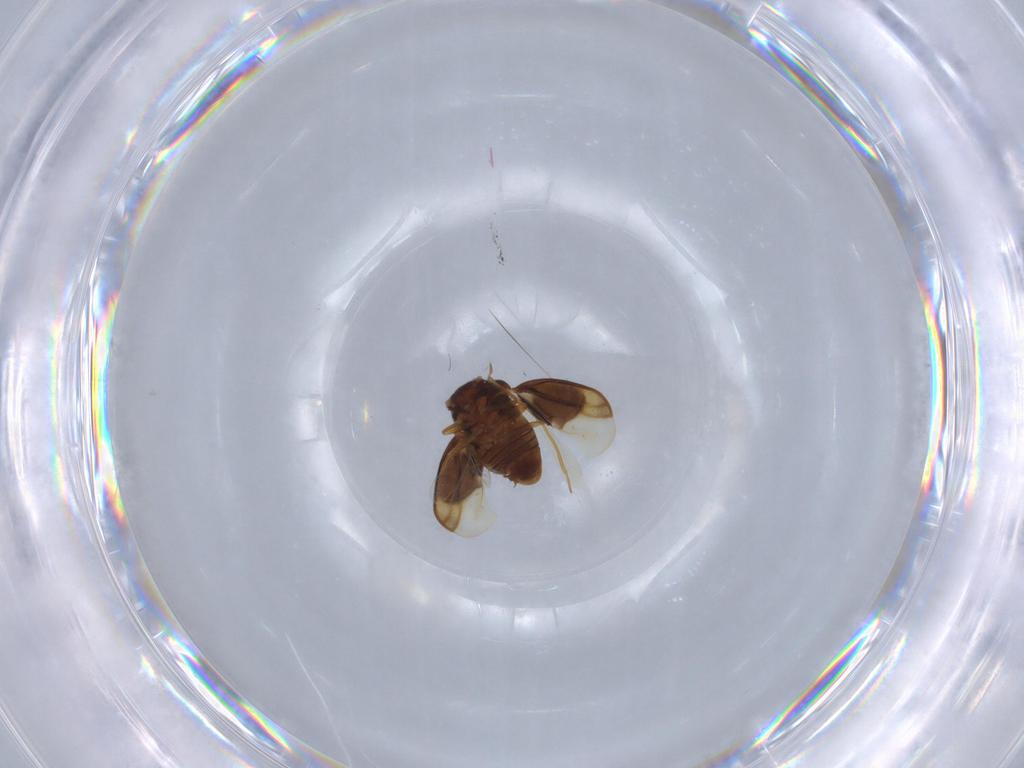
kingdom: Animalia
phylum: Arthropoda
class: Insecta
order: Hemiptera
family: Schizopteridae
